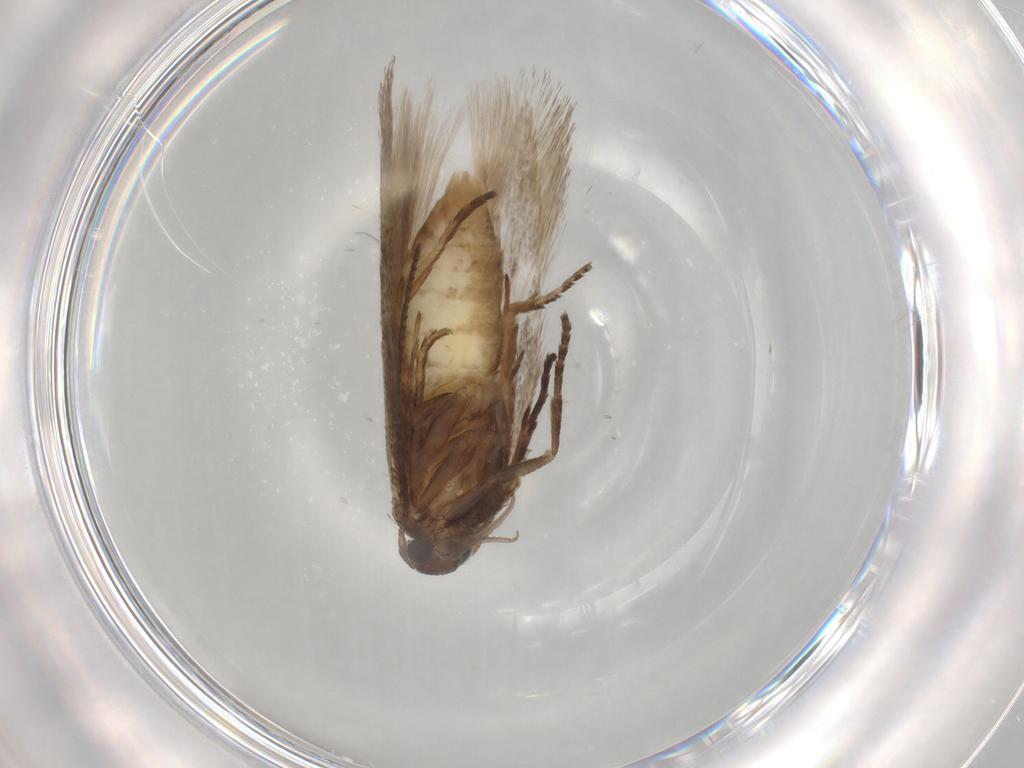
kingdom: Animalia
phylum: Arthropoda
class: Insecta
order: Lepidoptera
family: Gelechiidae
